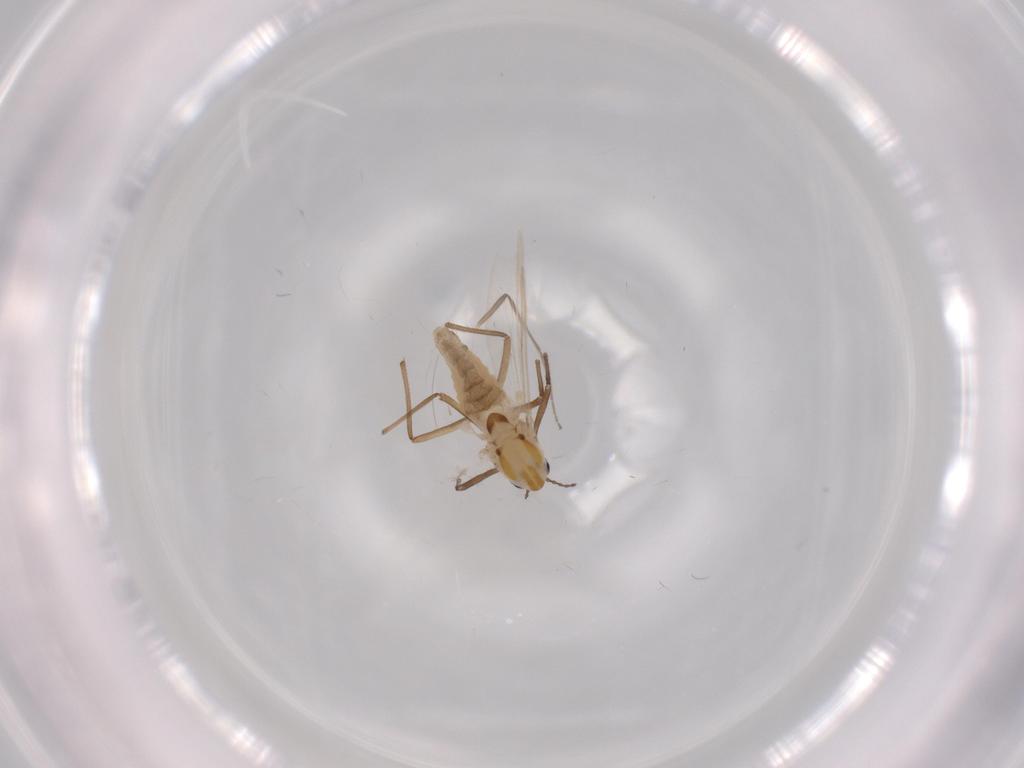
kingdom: Animalia
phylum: Arthropoda
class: Insecta
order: Diptera
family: Chironomidae
